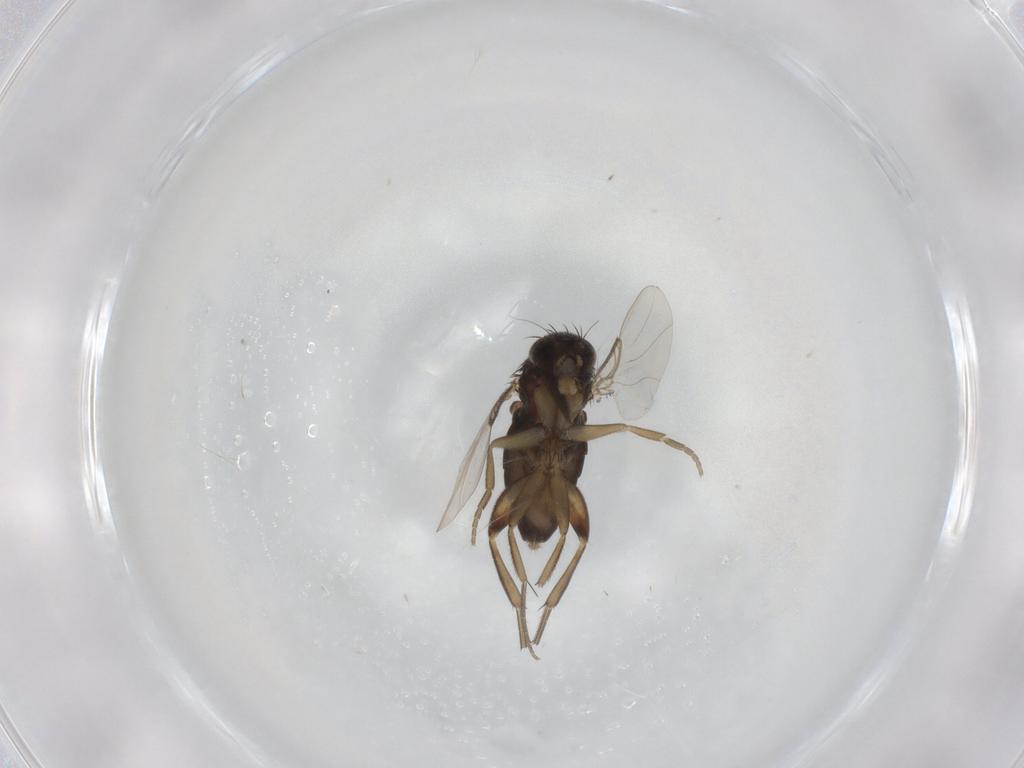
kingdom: Animalia
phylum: Arthropoda
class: Insecta
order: Diptera
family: Phoridae
